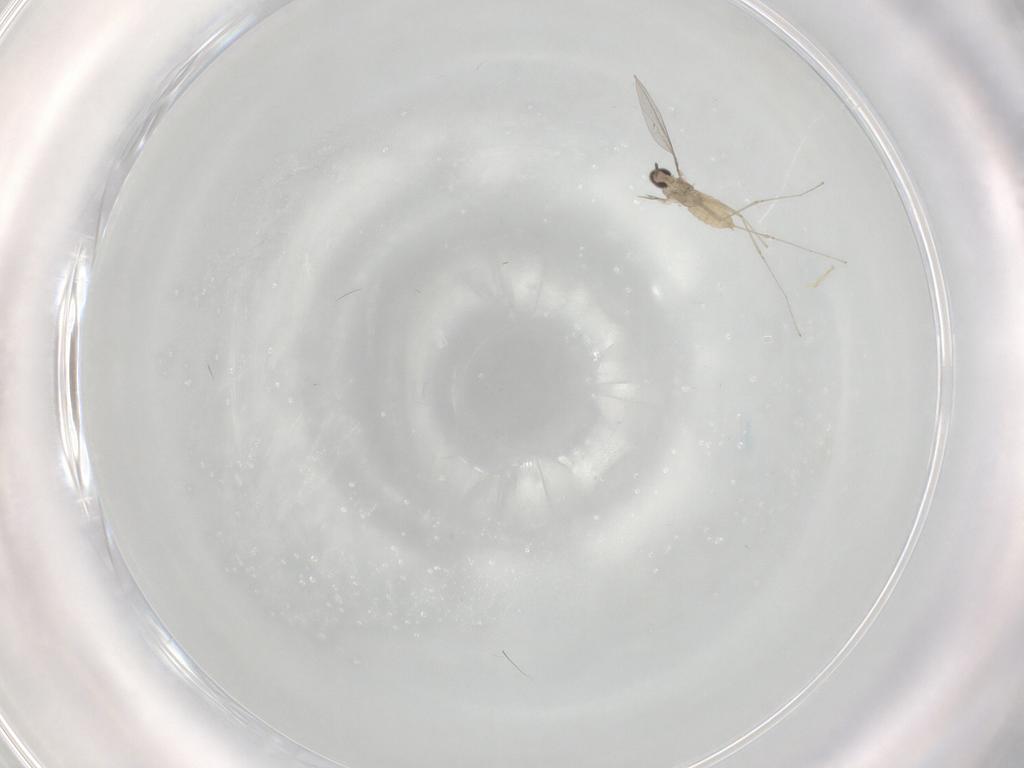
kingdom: Animalia
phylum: Arthropoda
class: Insecta
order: Diptera
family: Cecidomyiidae
